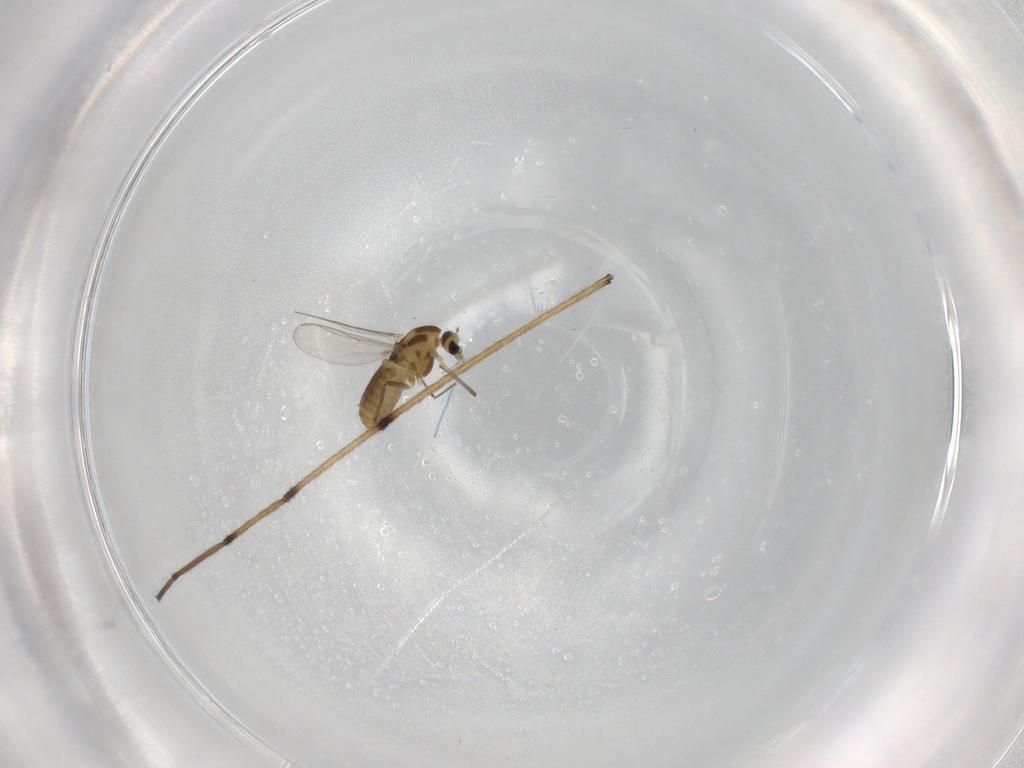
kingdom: Animalia
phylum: Arthropoda
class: Insecta
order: Diptera
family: Chironomidae
